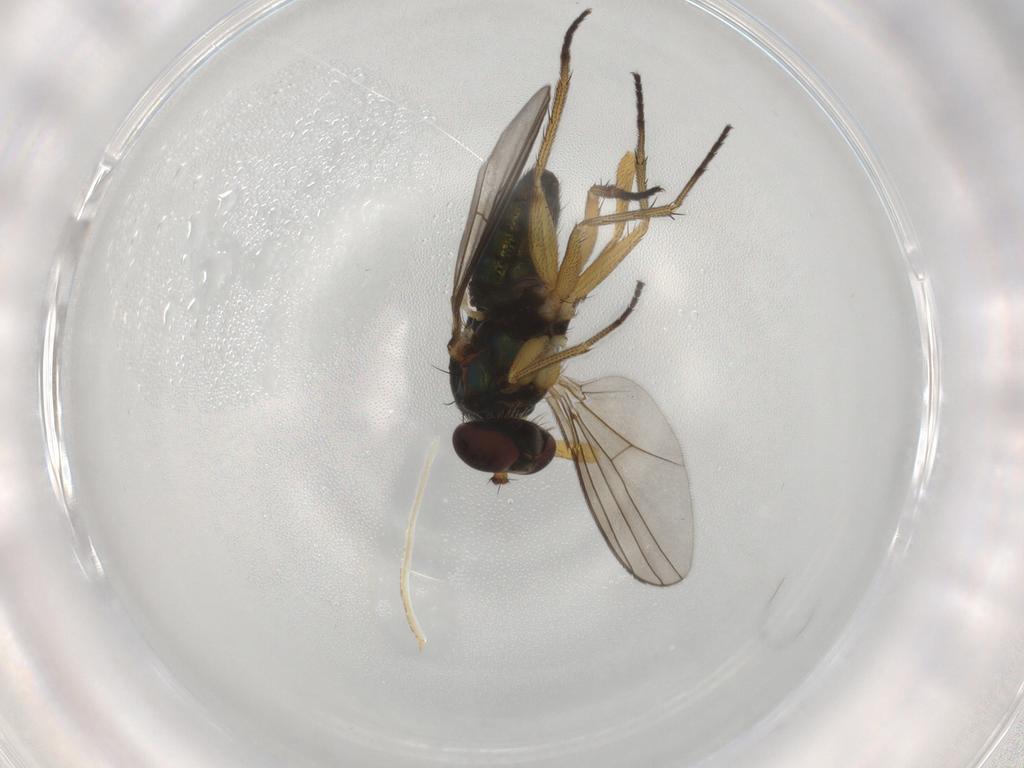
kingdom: Animalia
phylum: Arthropoda
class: Insecta
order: Diptera
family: Dolichopodidae
